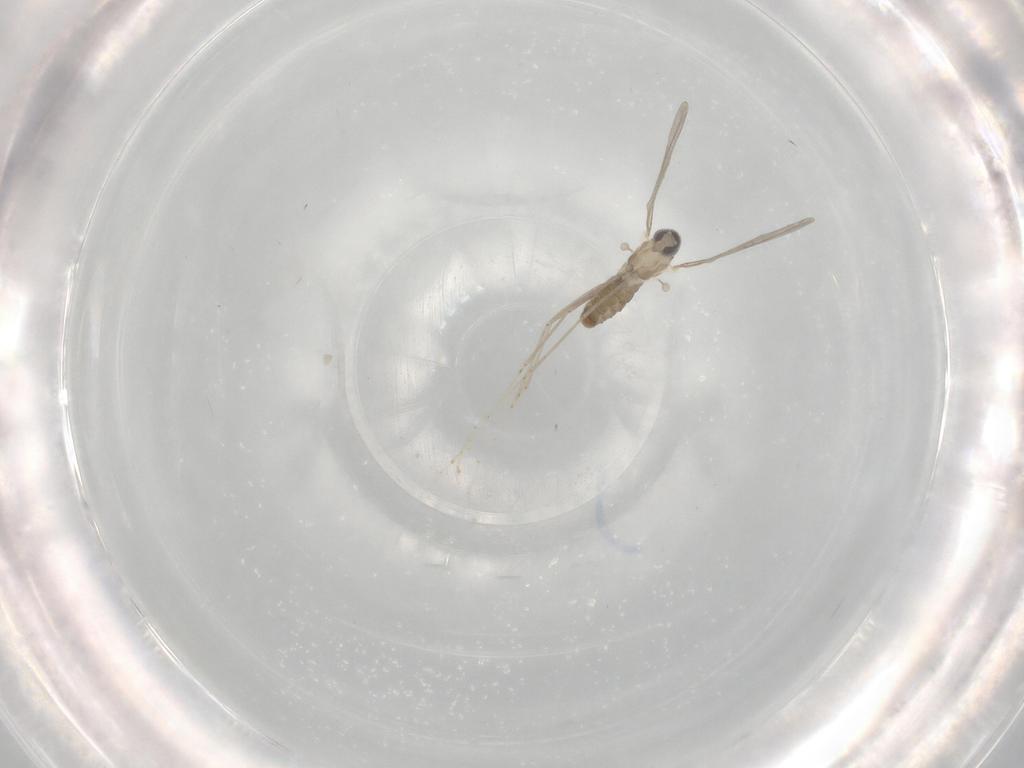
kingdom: Animalia
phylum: Arthropoda
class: Insecta
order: Diptera
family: Cecidomyiidae
